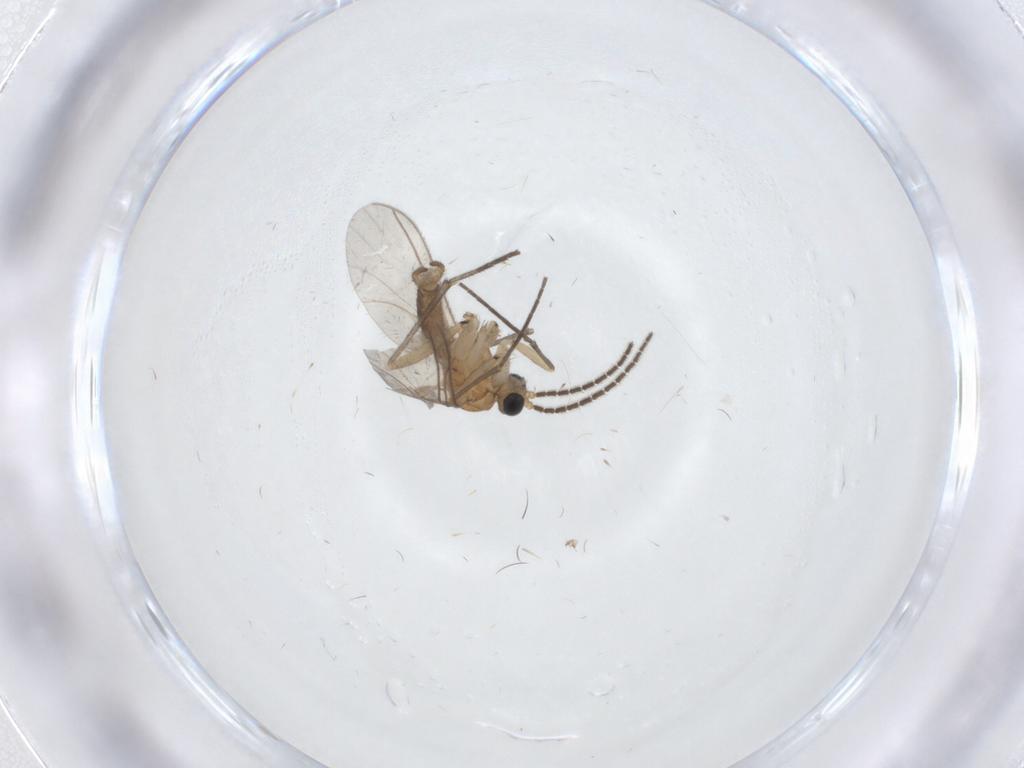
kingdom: Animalia
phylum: Arthropoda
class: Insecta
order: Diptera
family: Sciaridae
